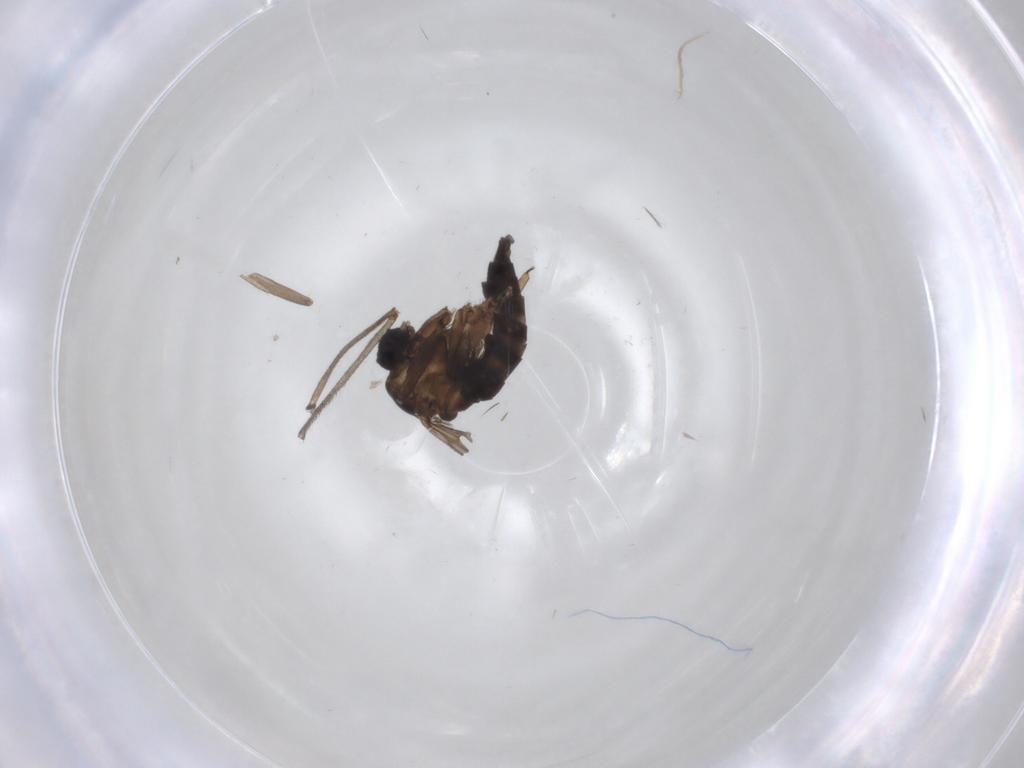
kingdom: Animalia
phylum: Arthropoda
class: Insecta
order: Diptera
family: Sciaridae
